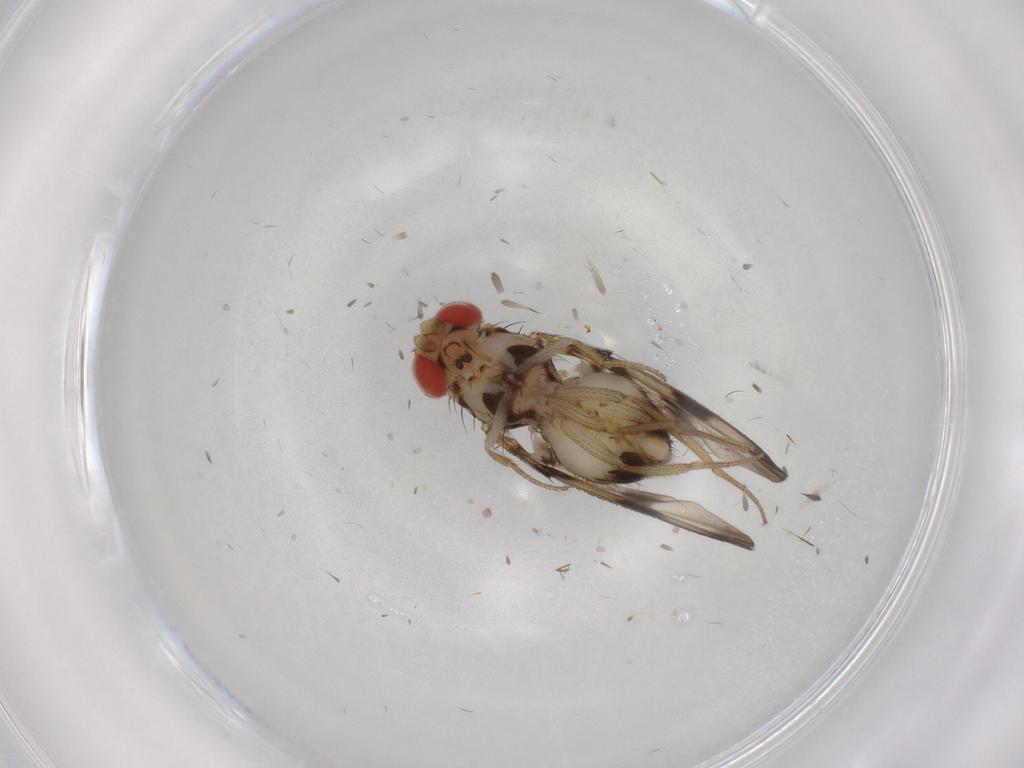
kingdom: Animalia
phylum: Arthropoda
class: Insecta
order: Diptera
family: Drosophilidae
